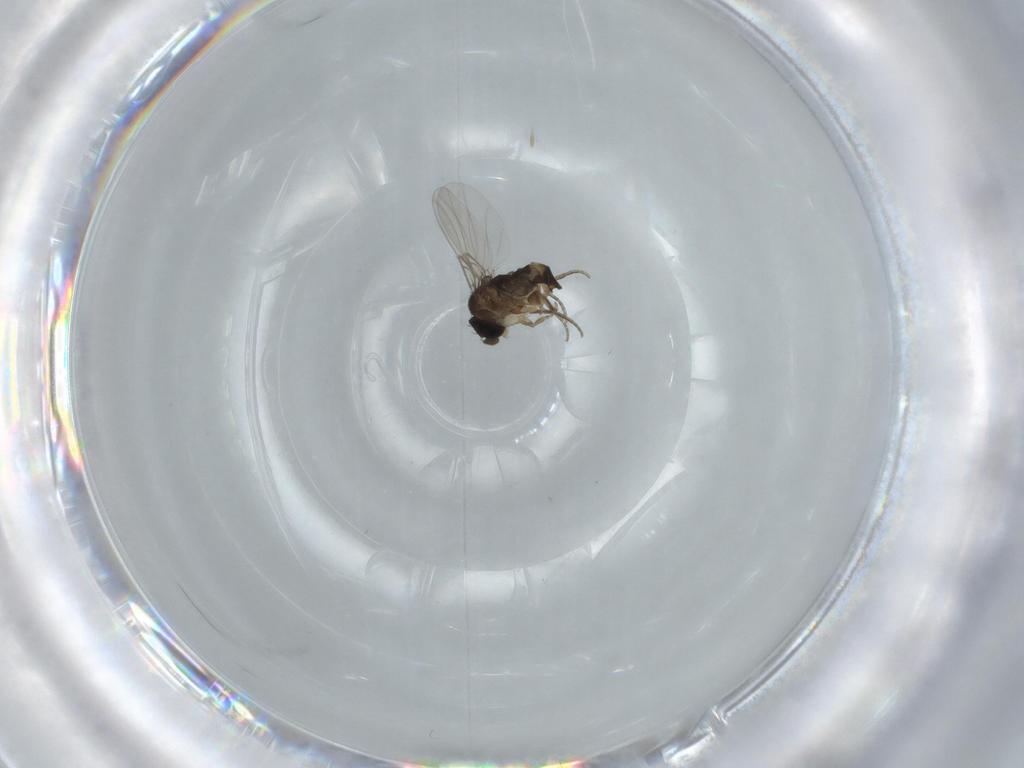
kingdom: Animalia
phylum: Arthropoda
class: Insecta
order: Diptera
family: Phoridae
